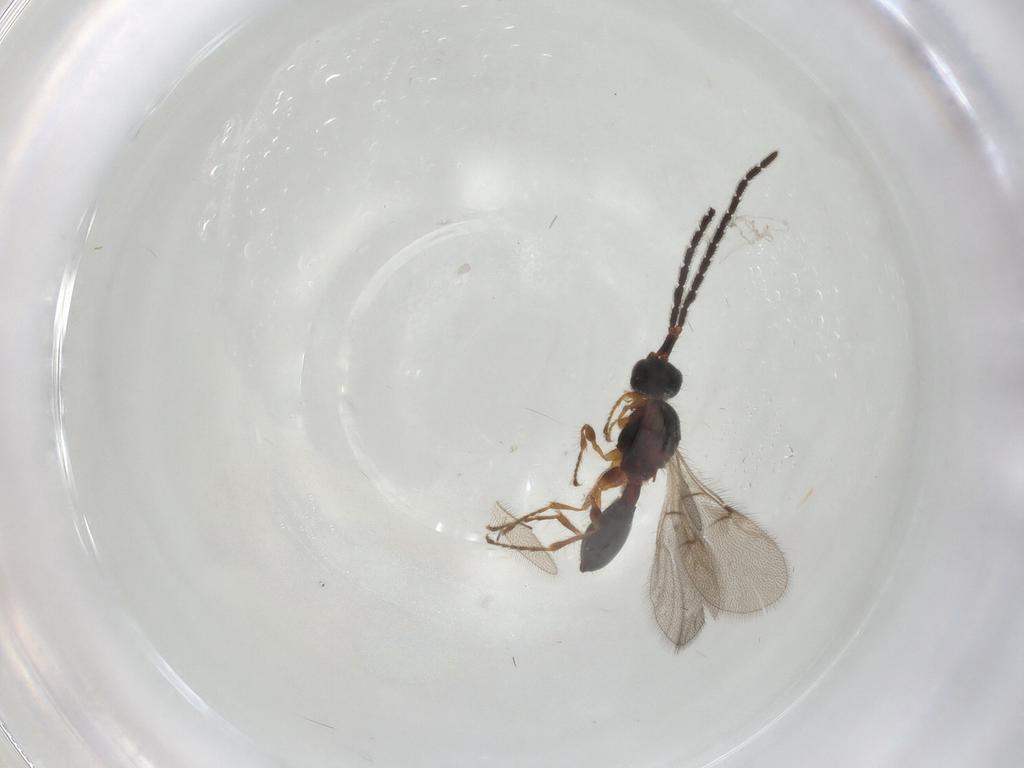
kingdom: Animalia
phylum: Arthropoda
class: Insecta
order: Hymenoptera
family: Diapriidae
